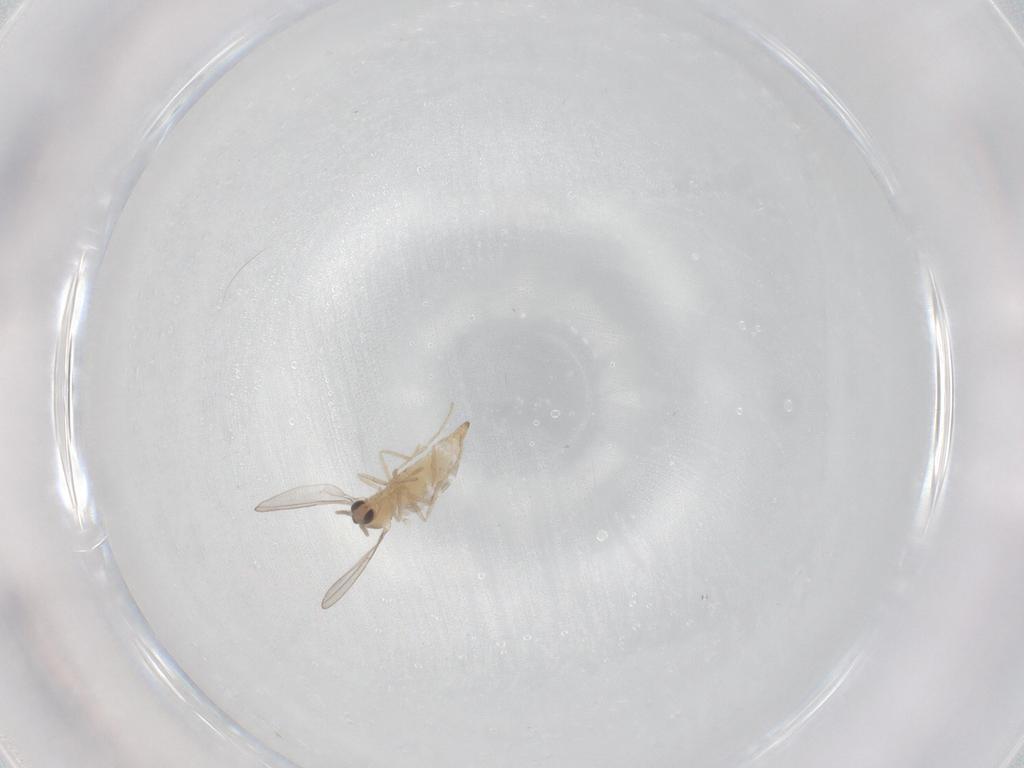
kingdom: Animalia
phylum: Arthropoda
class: Insecta
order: Diptera
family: Cecidomyiidae
